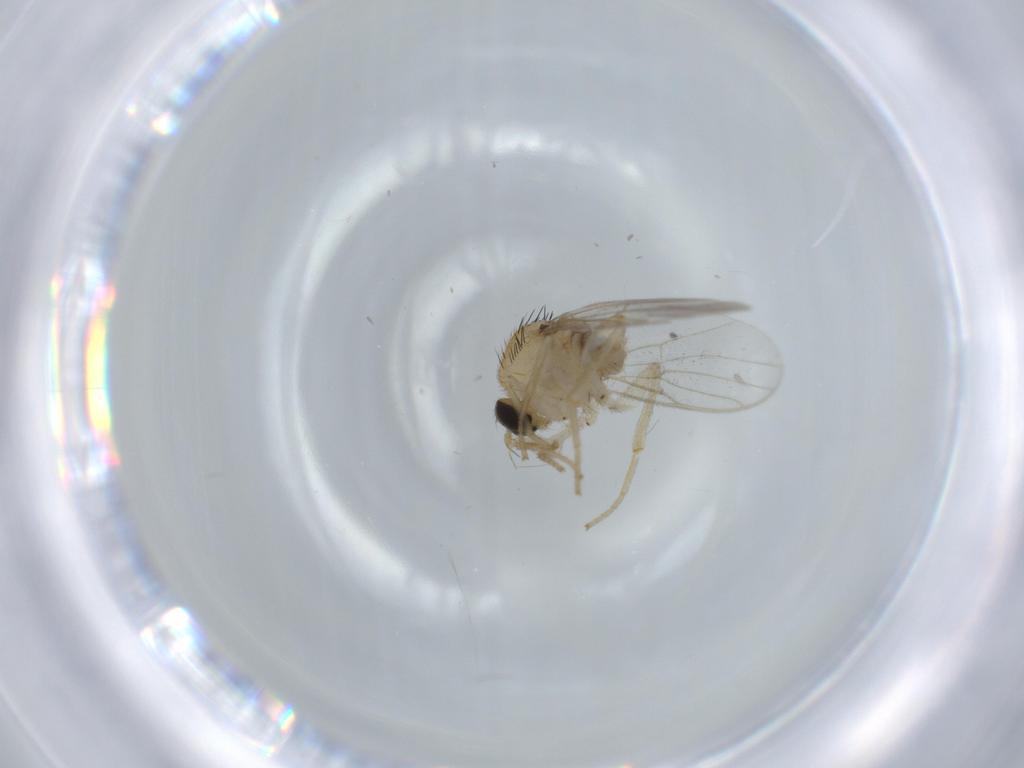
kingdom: Animalia
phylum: Arthropoda
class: Insecta
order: Diptera
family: Hybotidae
